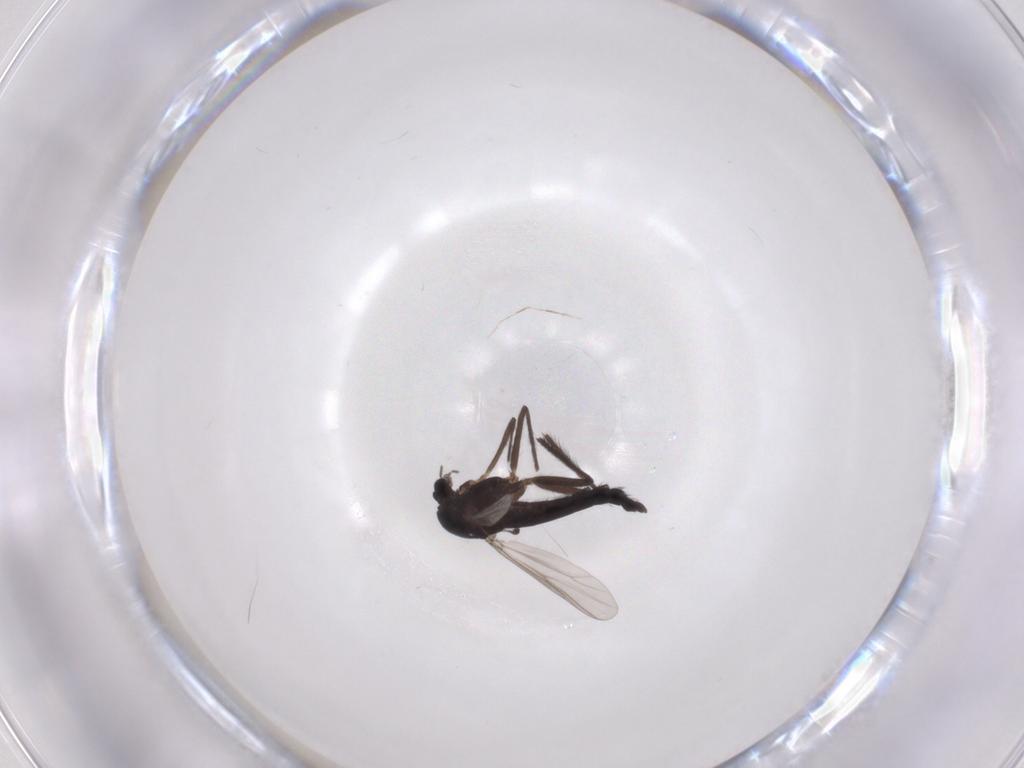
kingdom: Animalia
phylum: Arthropoda
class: Insecta
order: Diptera
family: Chironomidae
